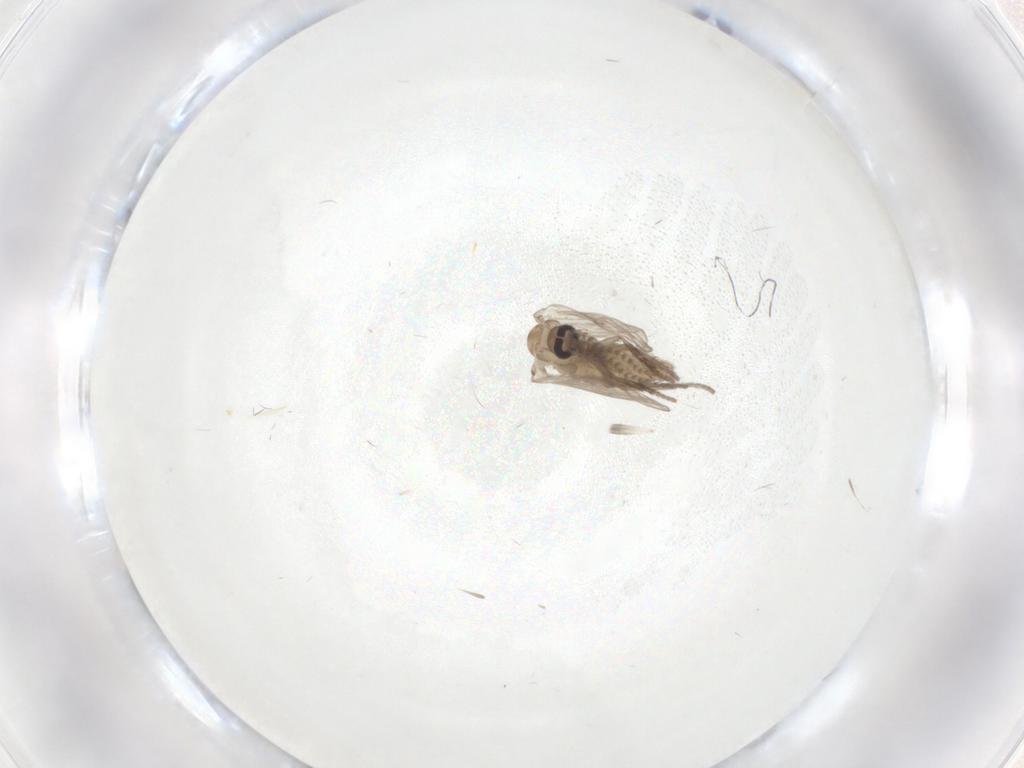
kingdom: Animalia
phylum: Arthropoda
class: Insecta
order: Diptera
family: Psychodidae
